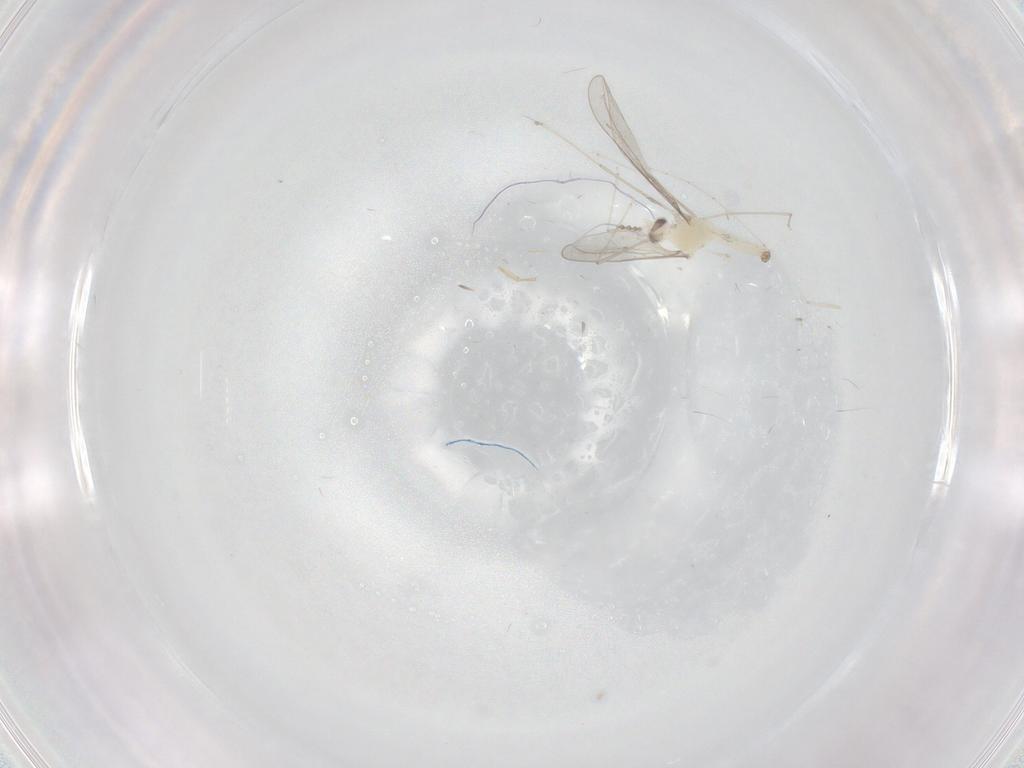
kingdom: Animalia
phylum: Arthropoda
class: Insecta
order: Diptera
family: Cecidomyiidae
